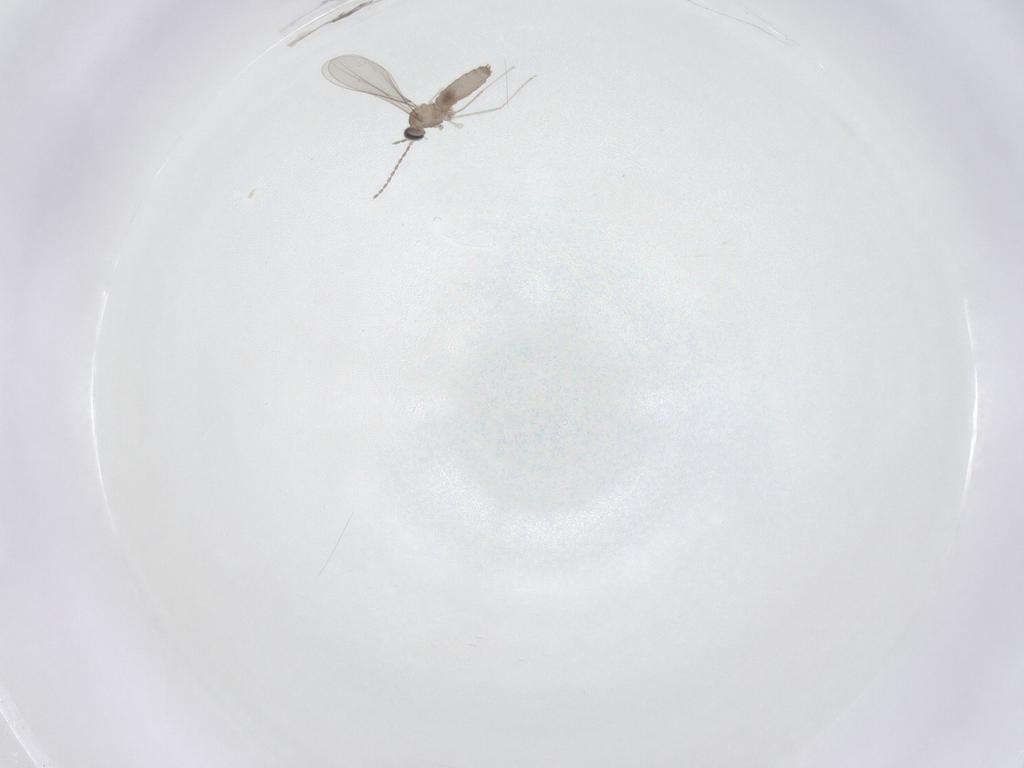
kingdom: Animalia
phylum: Arthropoda
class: Insecta
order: Diptera
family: Cecidomyiidae
